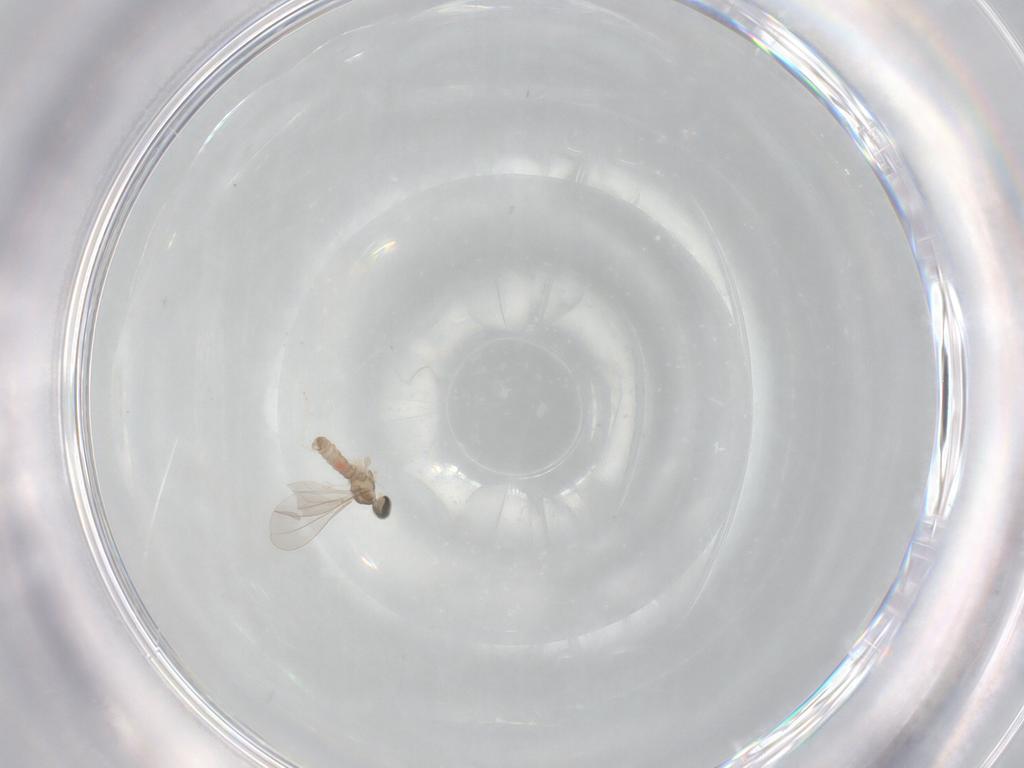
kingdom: Animalia
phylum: Arthropoda
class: Insecta
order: Diptera
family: Cecidomyiidae
